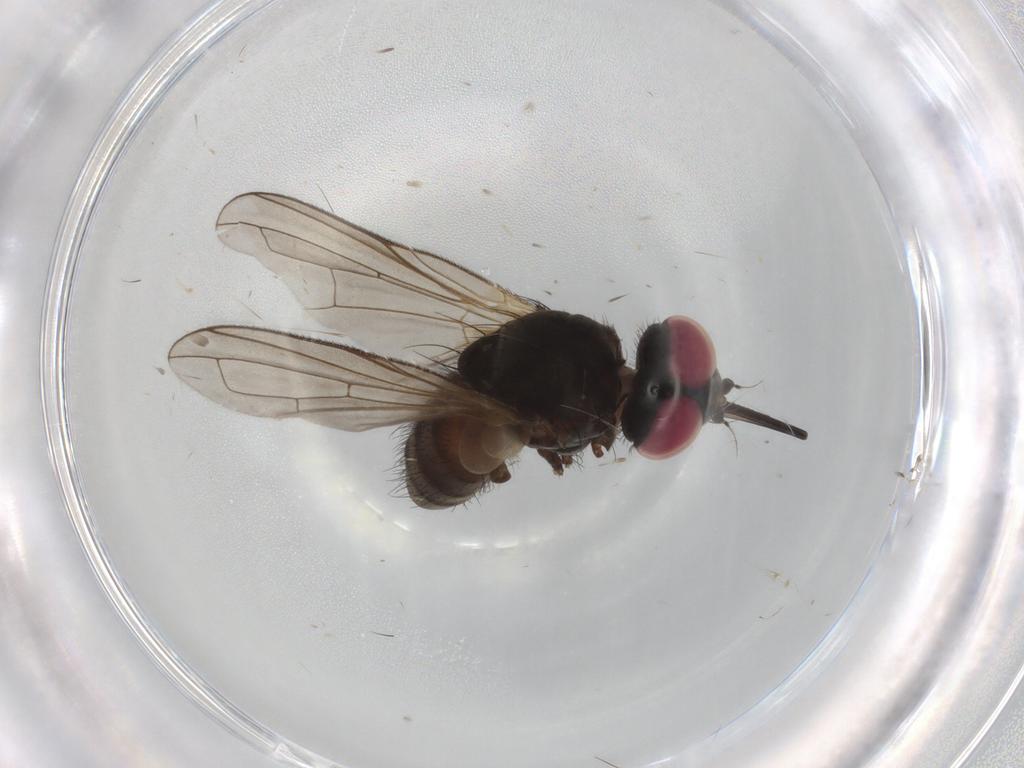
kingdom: Animalia
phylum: Arthropoda
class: Insecta
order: Diptera
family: Tachinidae
